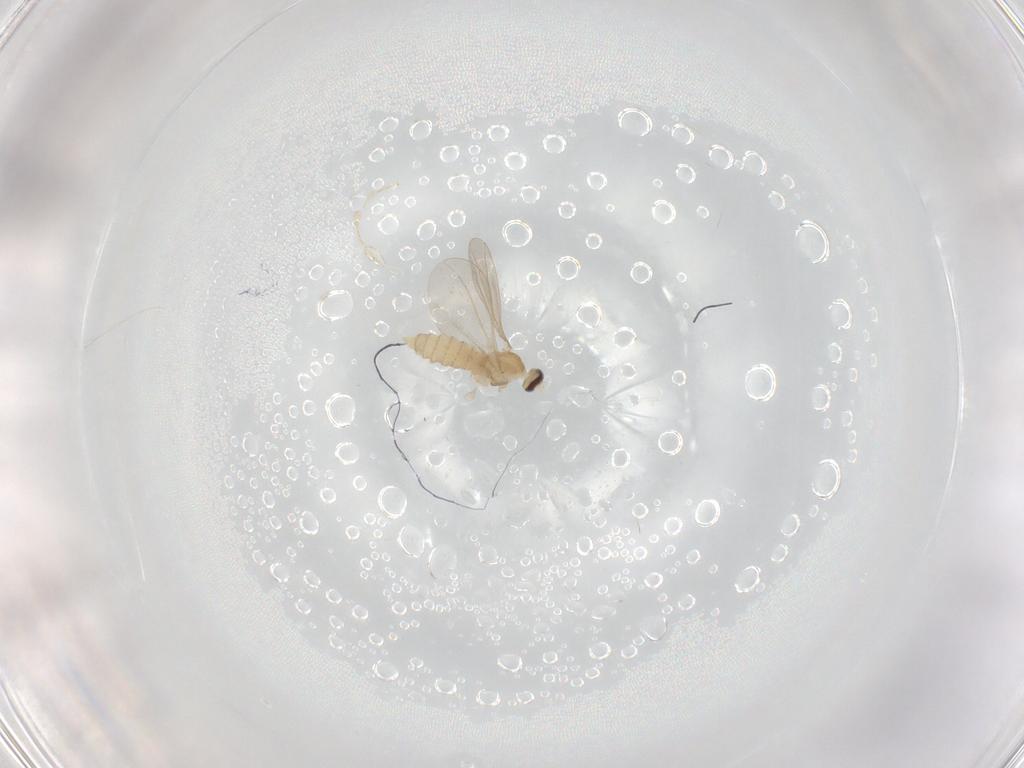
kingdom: Animalia
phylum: Arthropoda
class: Insecta
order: Diptera
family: Cecidomyiidae
